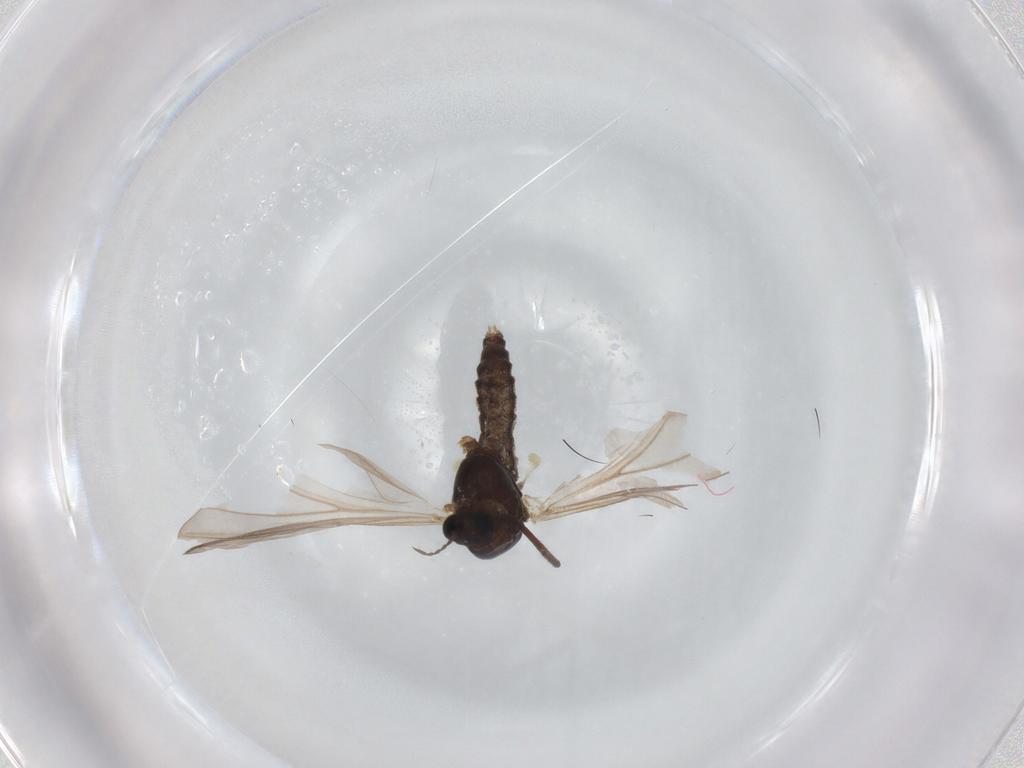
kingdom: Animalia
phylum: Arthropoda
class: Insecta
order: Diptera
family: Chironomidae
